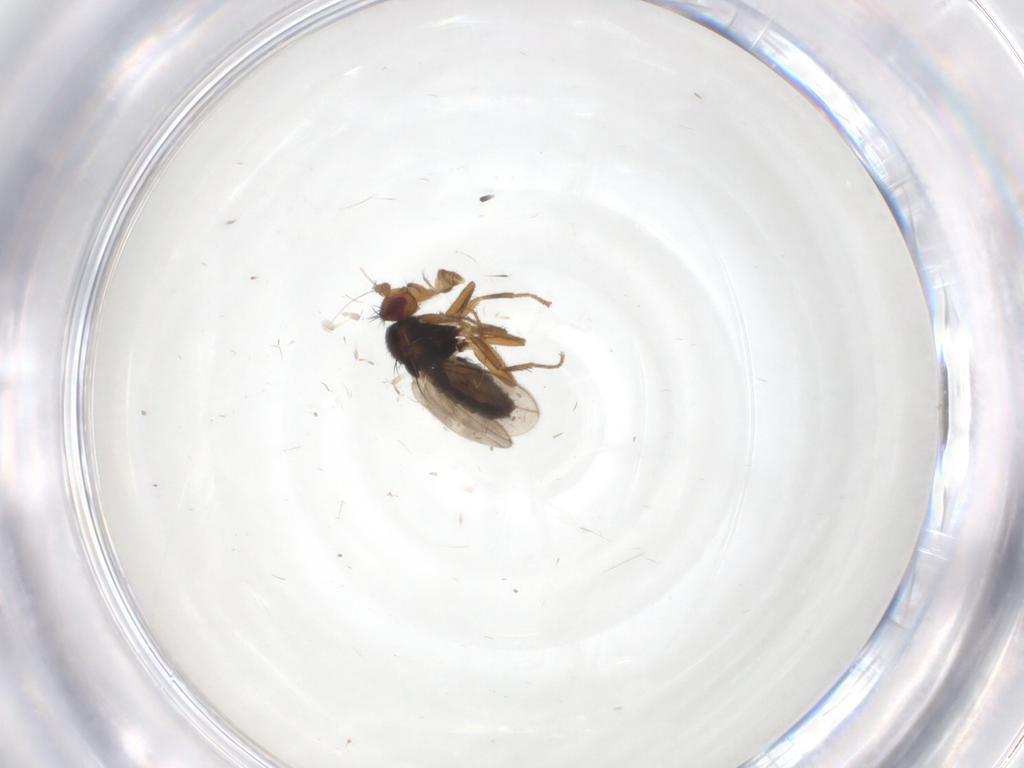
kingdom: Animalia
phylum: Arthropoda
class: Insecta
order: Diptera
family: Sphaeroceridae
